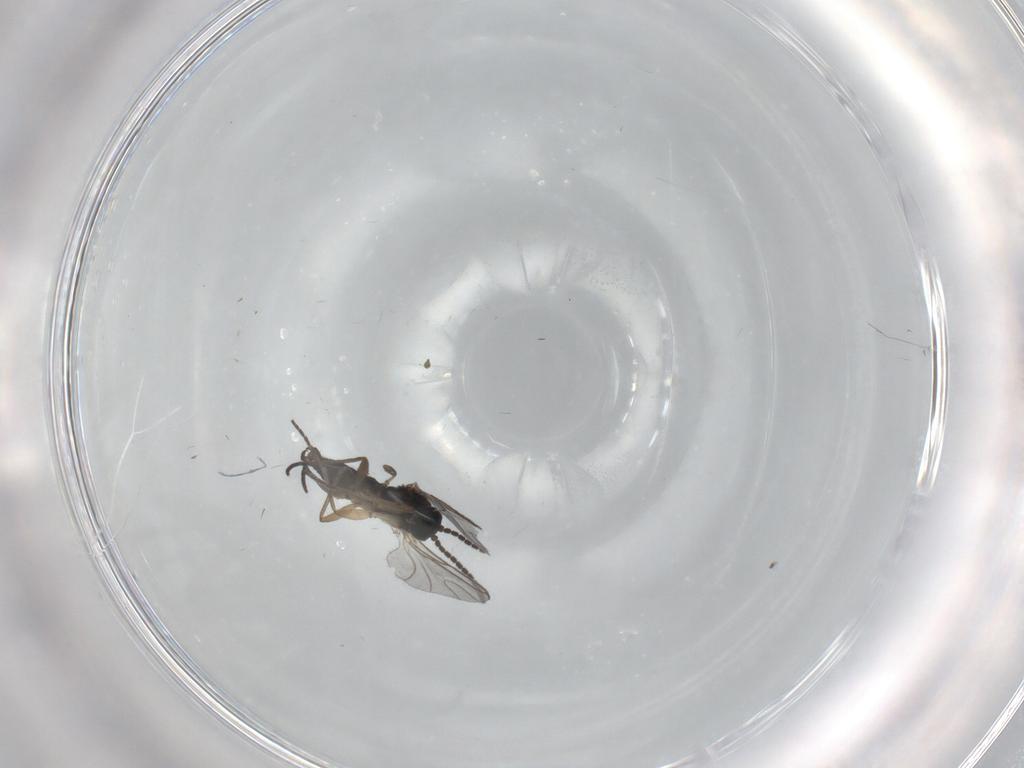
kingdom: Animalia
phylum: Arthropoda
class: Insecta
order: Diptera
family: Sciaridae
